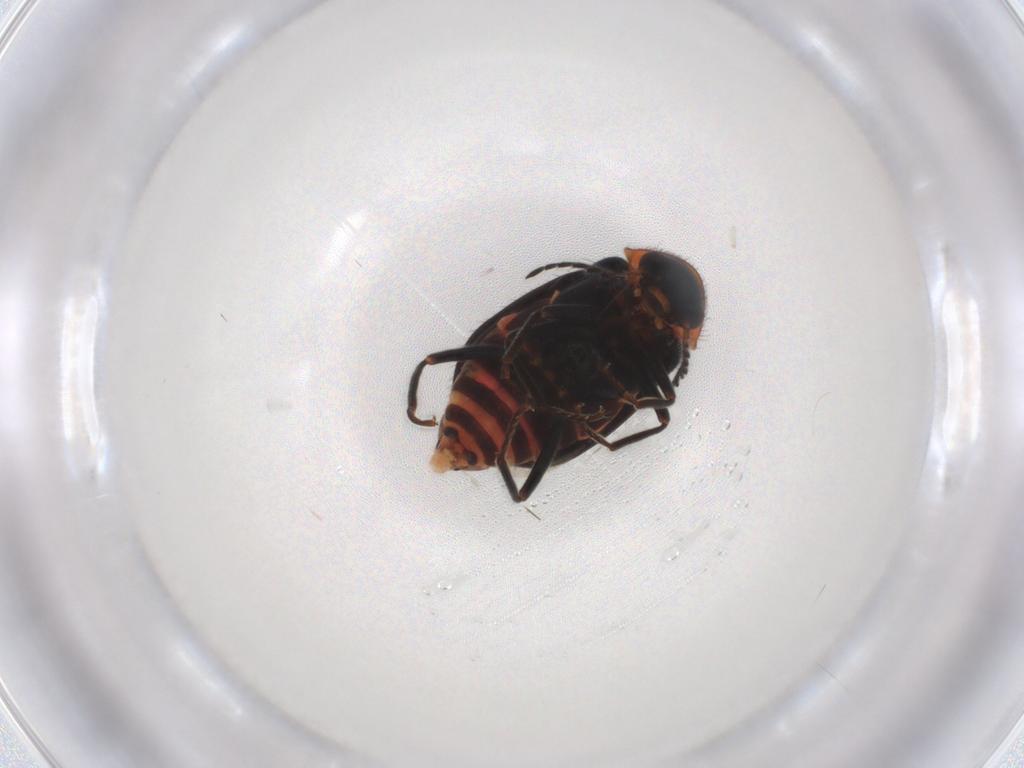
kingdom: Animalia
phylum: Arthropoda
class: Insecta
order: Coleoptera
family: Melyridae
